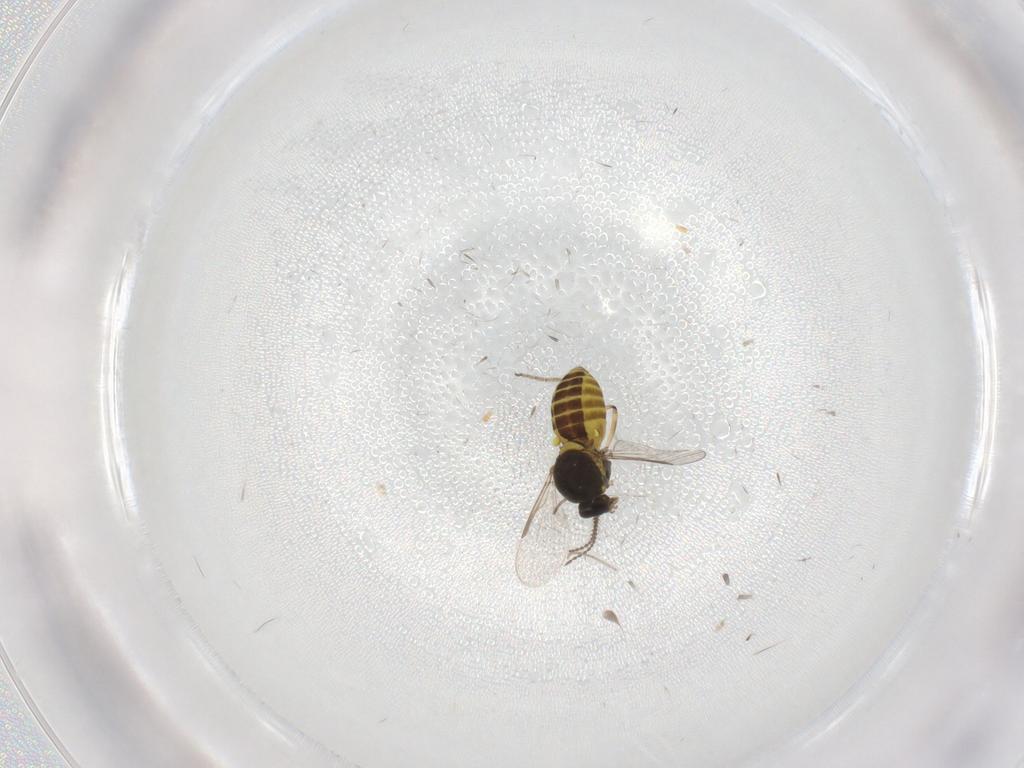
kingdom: Animalia
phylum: Arthropoda
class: Insecta
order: Diptera
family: Ceratopogonidae
